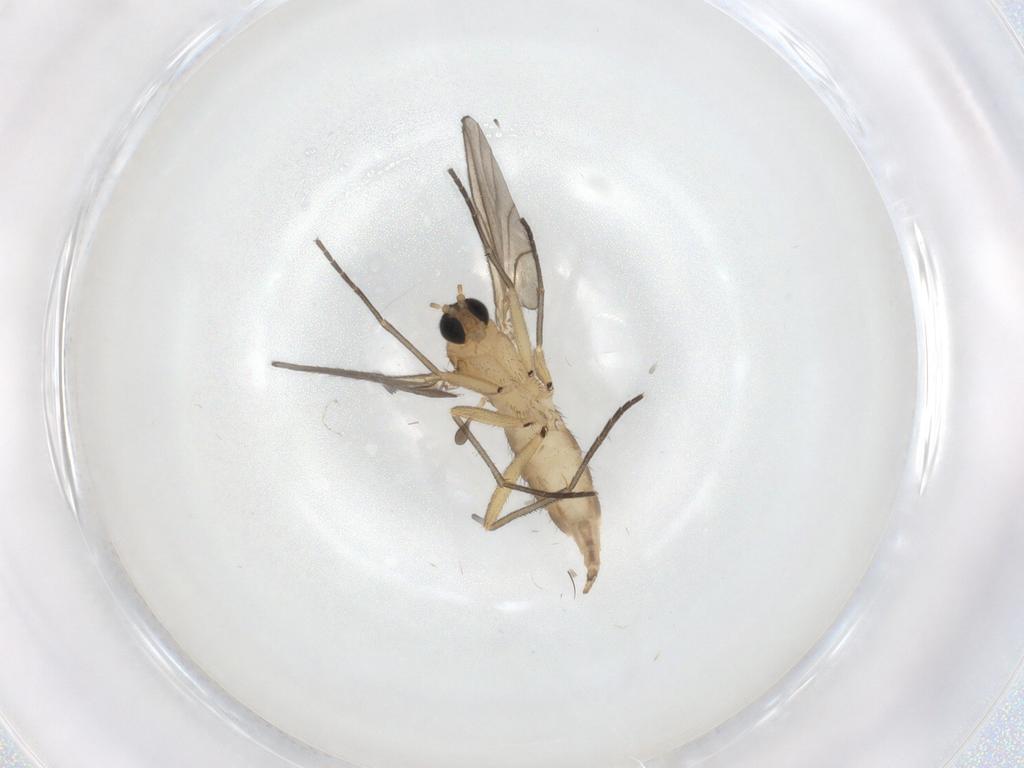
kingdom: Animalia
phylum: Arthropoda
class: Insecta
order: Diptera
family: Sciaridae
